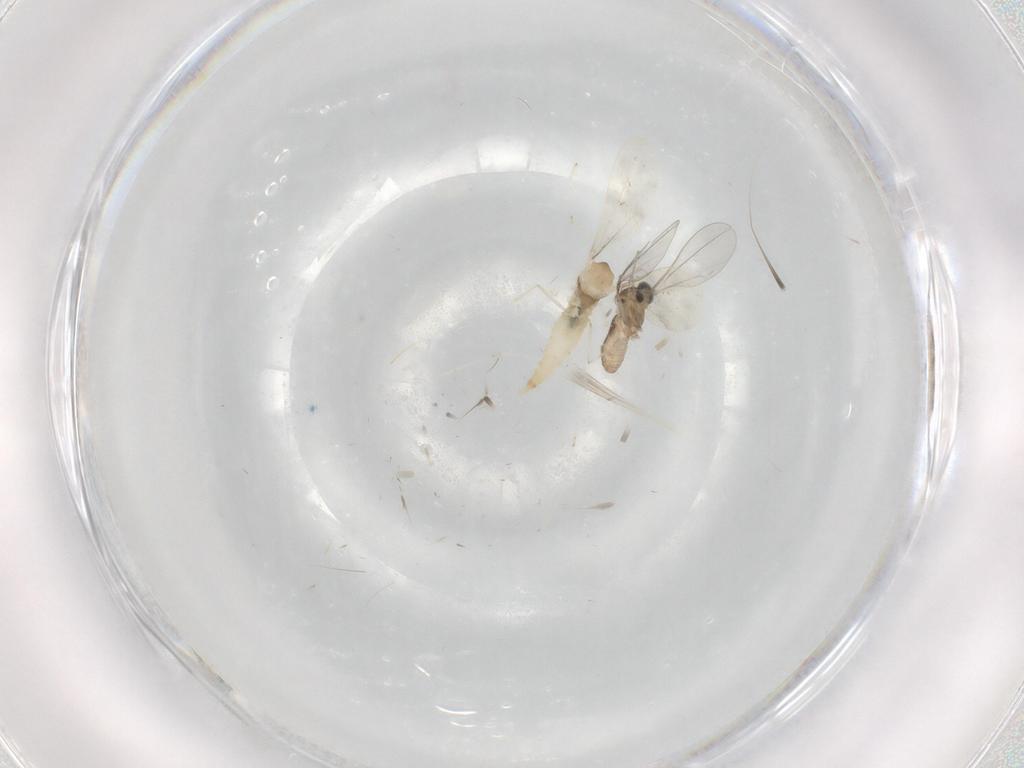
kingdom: Animalia
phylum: Arthropoda
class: Insecta
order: Diptera
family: Cecidomyiidae
